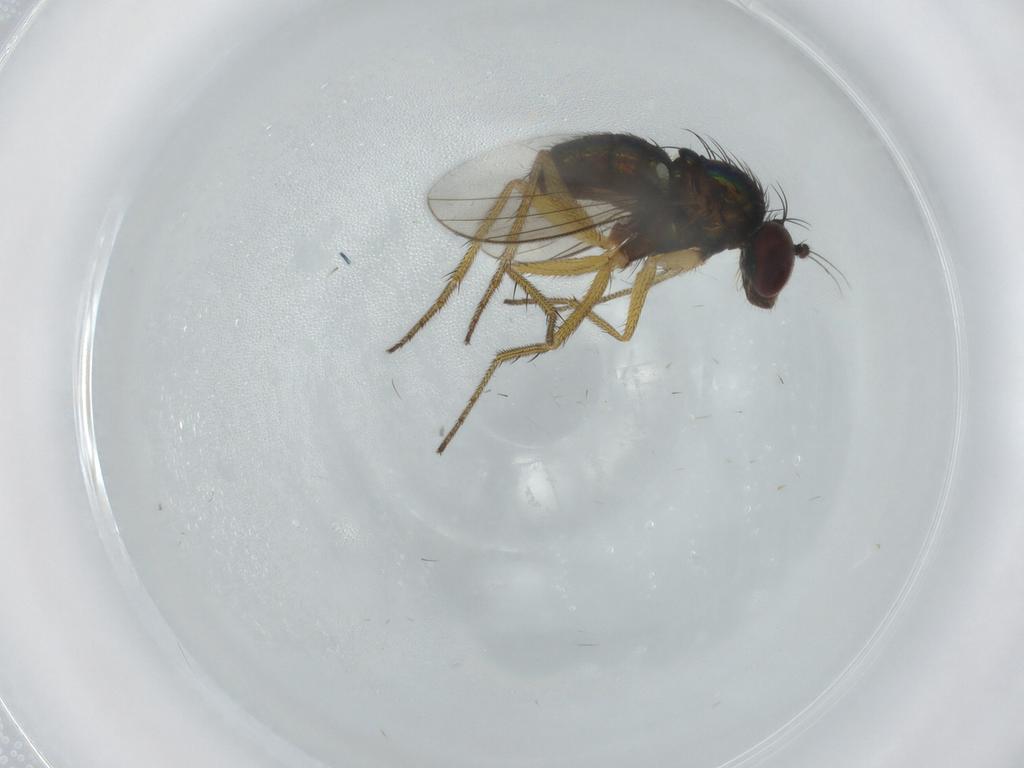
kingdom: Animalia
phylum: Arthropoda
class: Insecta
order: Diptera
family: Dolichopodidae
